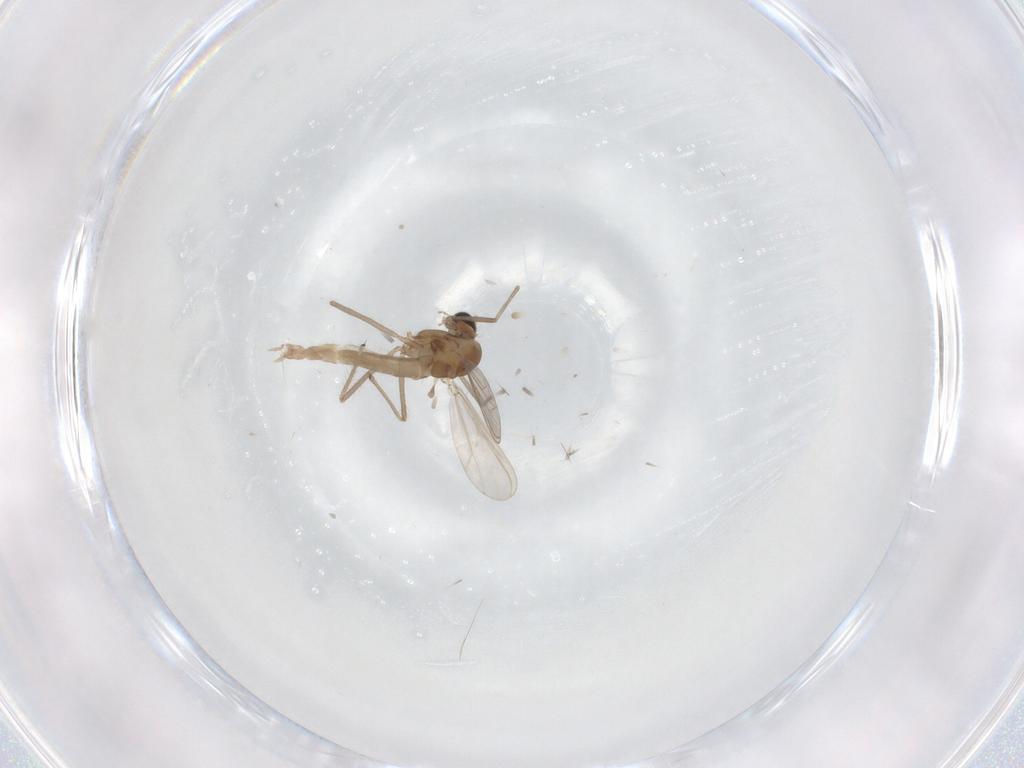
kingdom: Animalia
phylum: Arthropoda
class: Insecta
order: Diptera
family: Chironomidae
